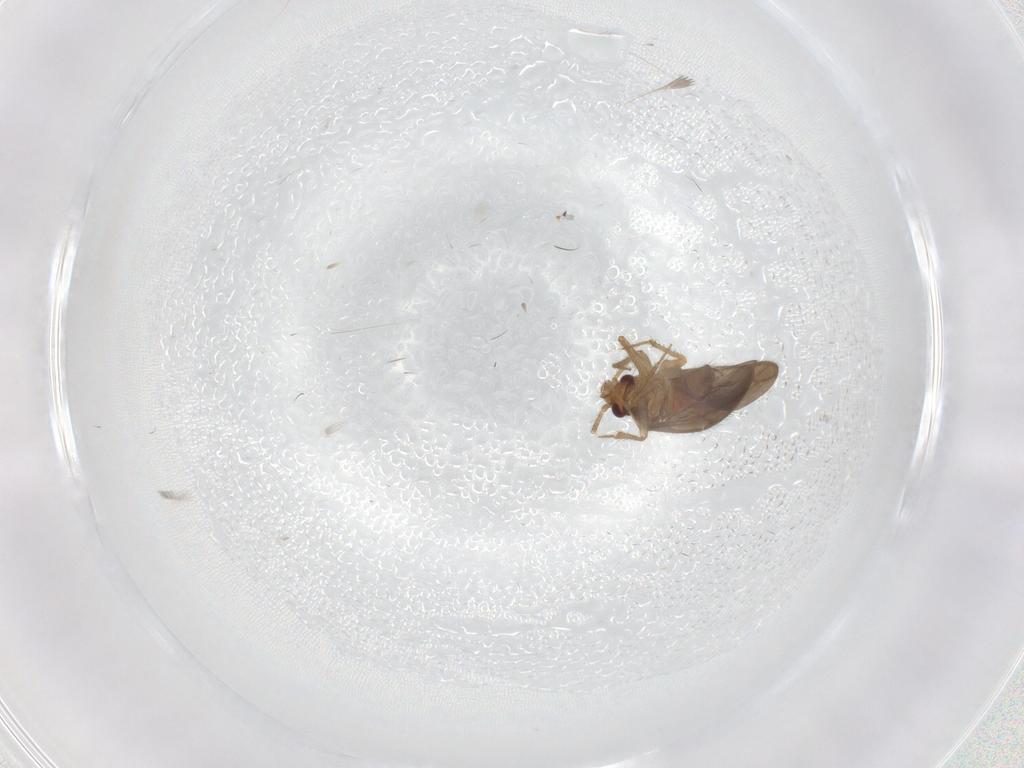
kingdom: Animalia
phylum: Arthropoda
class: Insecta
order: Hemiptera
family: Ceratocombidae
